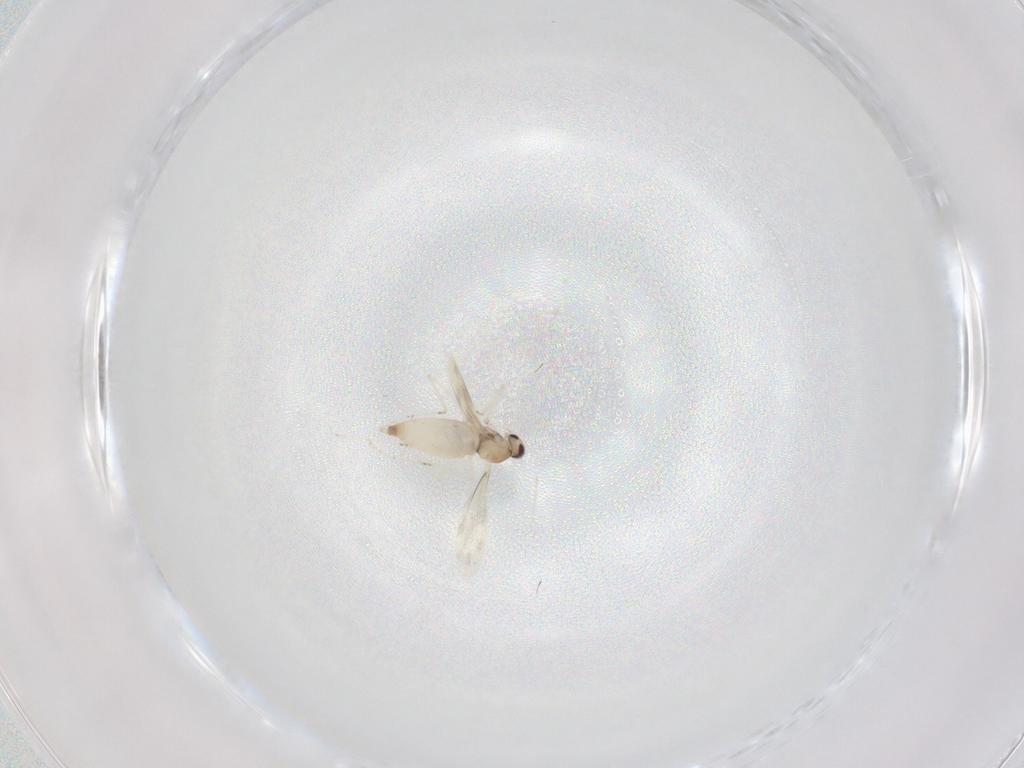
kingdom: Animalia
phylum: Arthropoda
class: Insecta
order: Diptera
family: Cecidomyiidae
